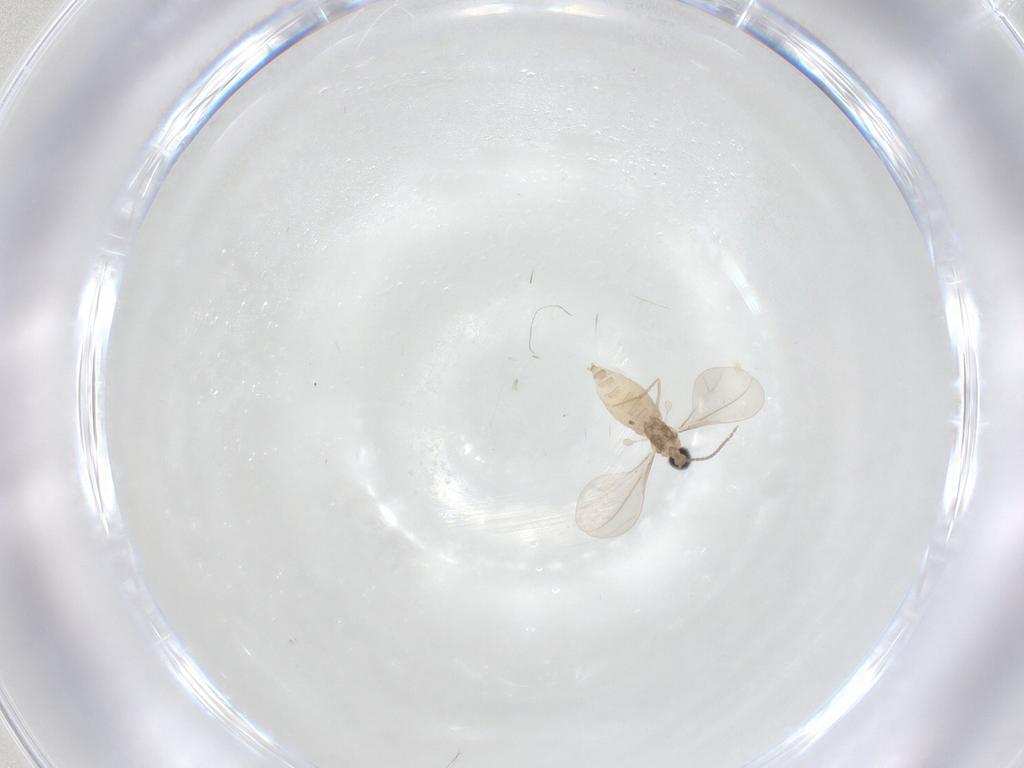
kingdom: Animalia
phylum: Arthropoda
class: Insecta
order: Diptera
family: Cecidomyiidae
